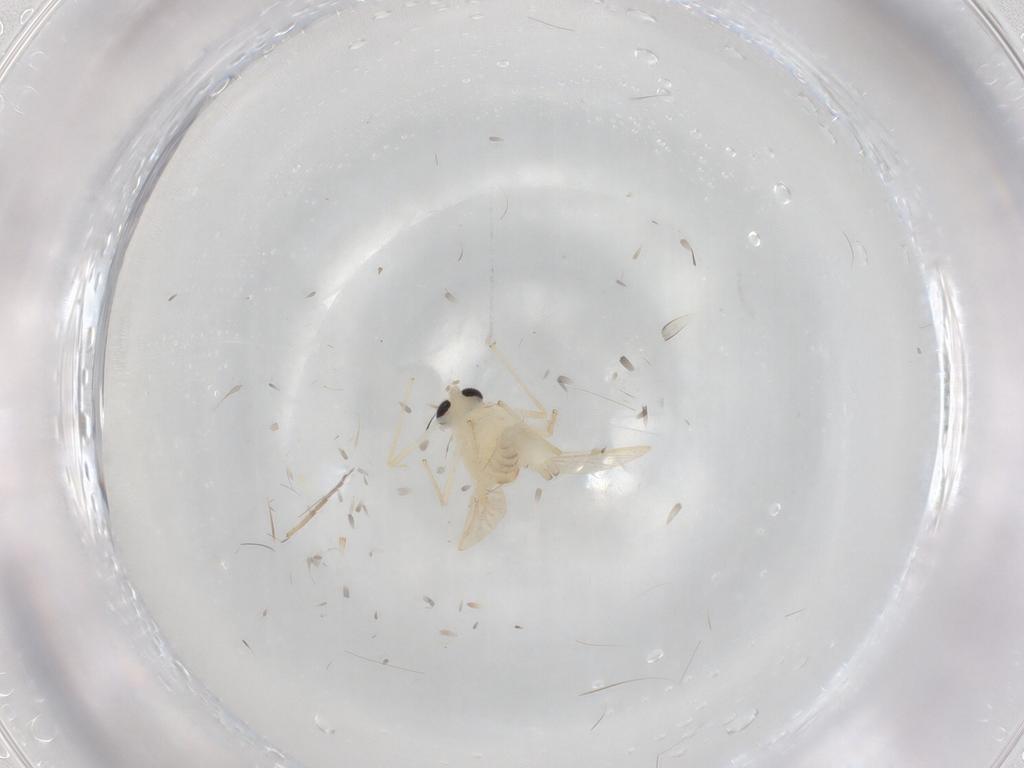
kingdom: Animalia
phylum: Arthropoda
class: Insecta
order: Diptera
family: Chironomidae
